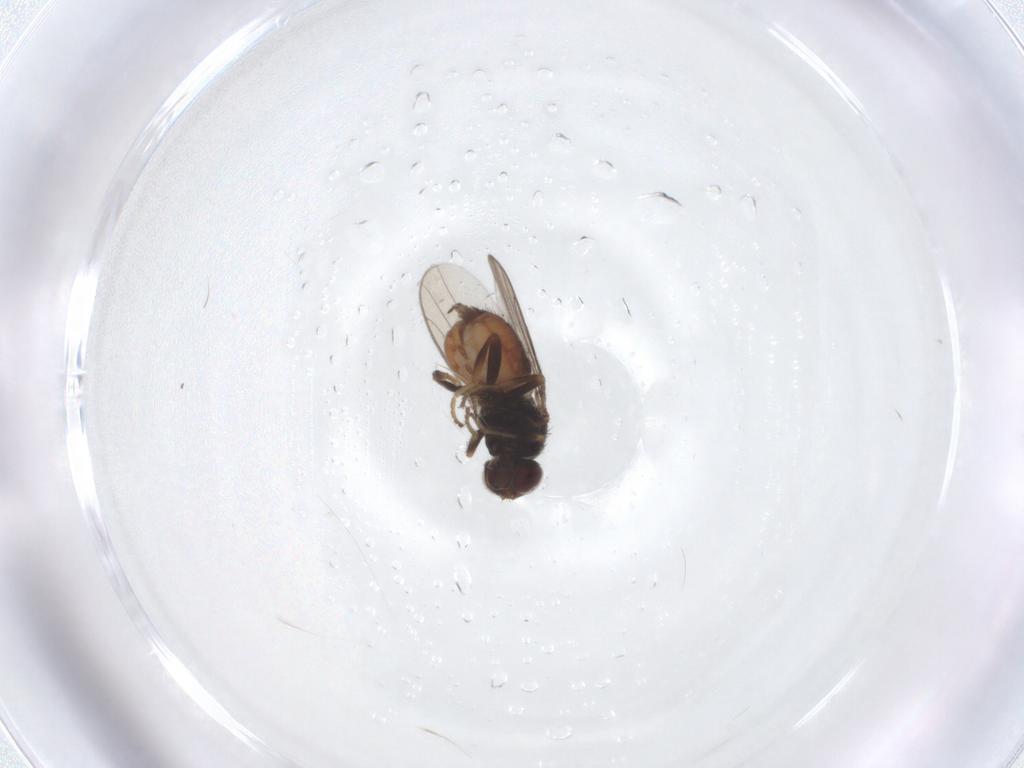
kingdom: Animalia
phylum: Arthropoda
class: Insecta
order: Diptera
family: Chloropidae
